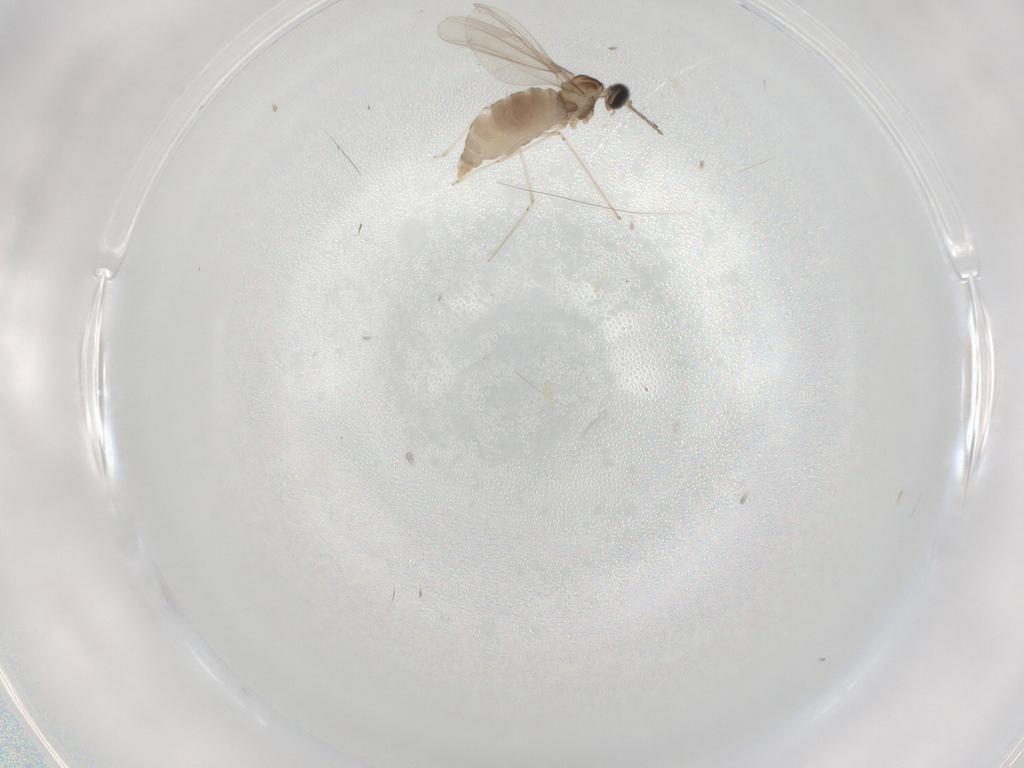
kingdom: Animalia
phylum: Arthropoda
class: Insecta
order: Diptera
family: Cecidomyiidae
